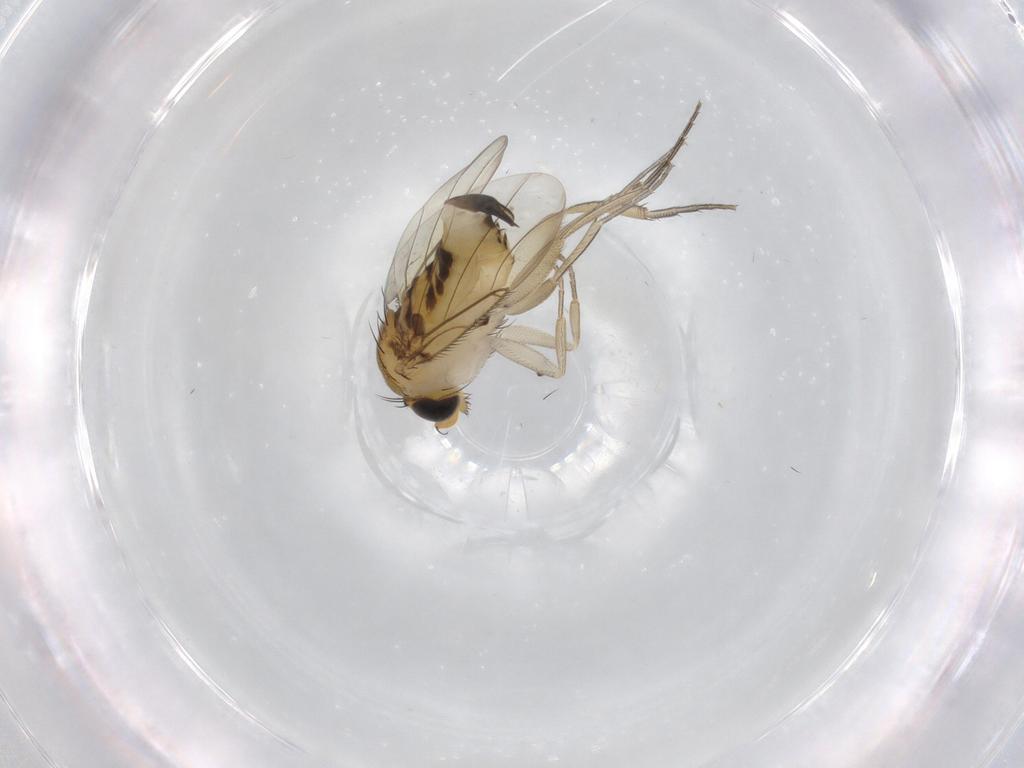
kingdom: Animalia
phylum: Arthropoda
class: Insecta
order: Diptera
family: Phoridae
